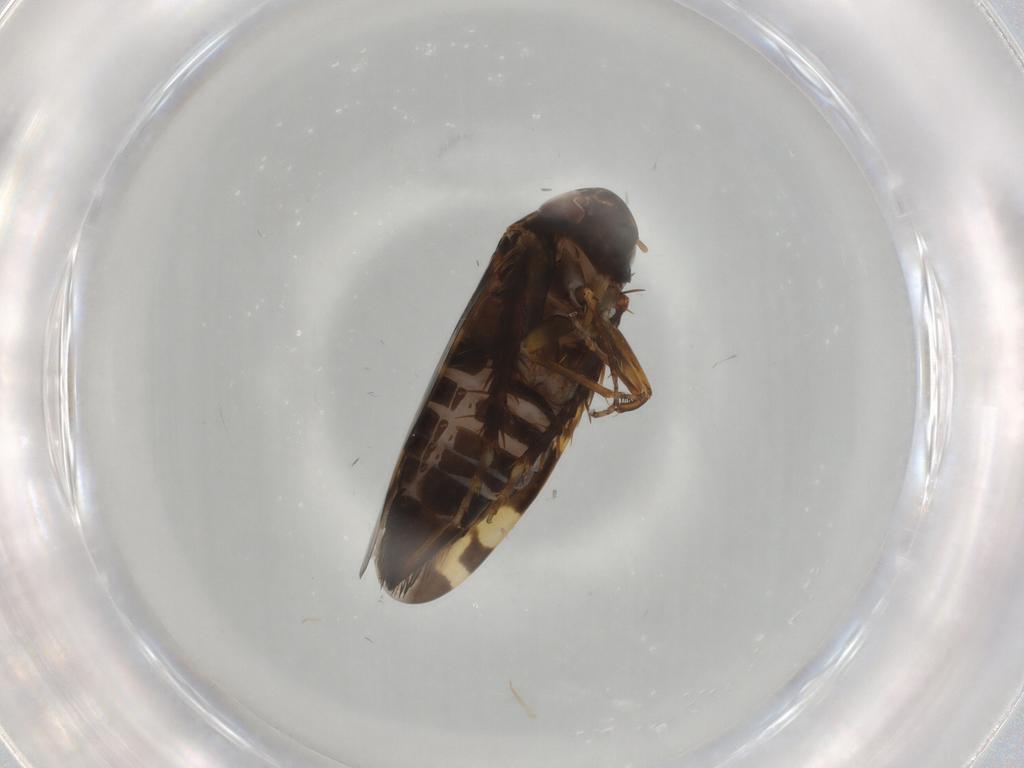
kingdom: Animalia
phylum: Arthropoda
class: Insecta
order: Hemiptera
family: Cicadellidae
